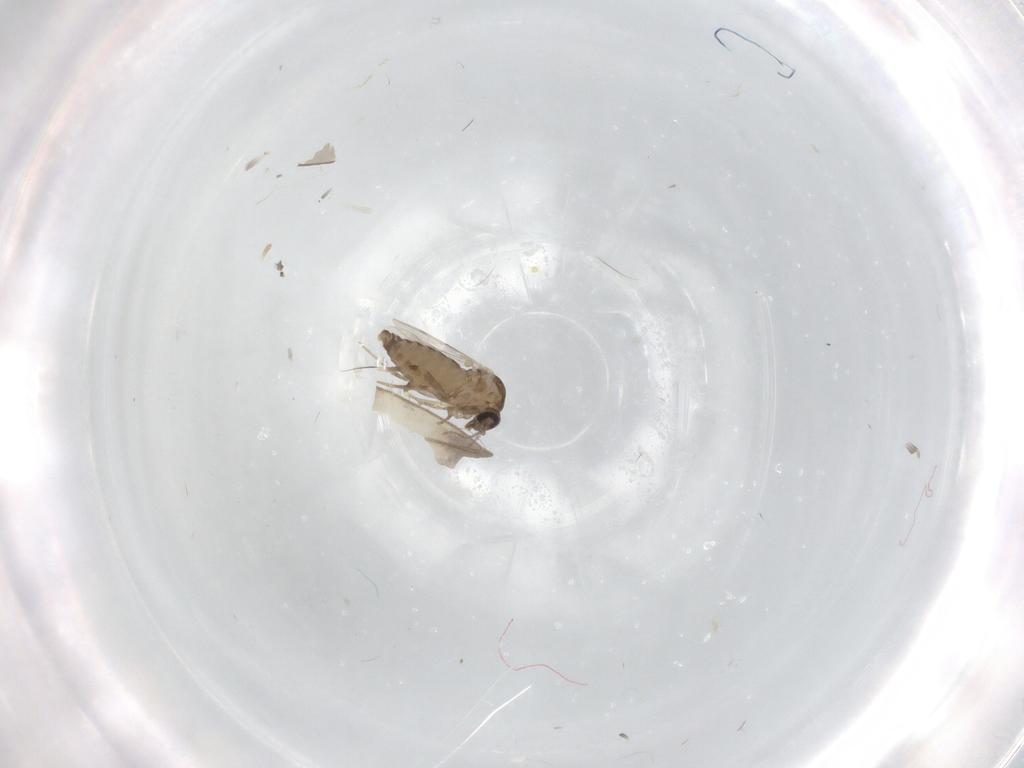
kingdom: Animalia
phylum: Arthropoda
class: Insecta
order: Diptera
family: Ceratopogonidae
